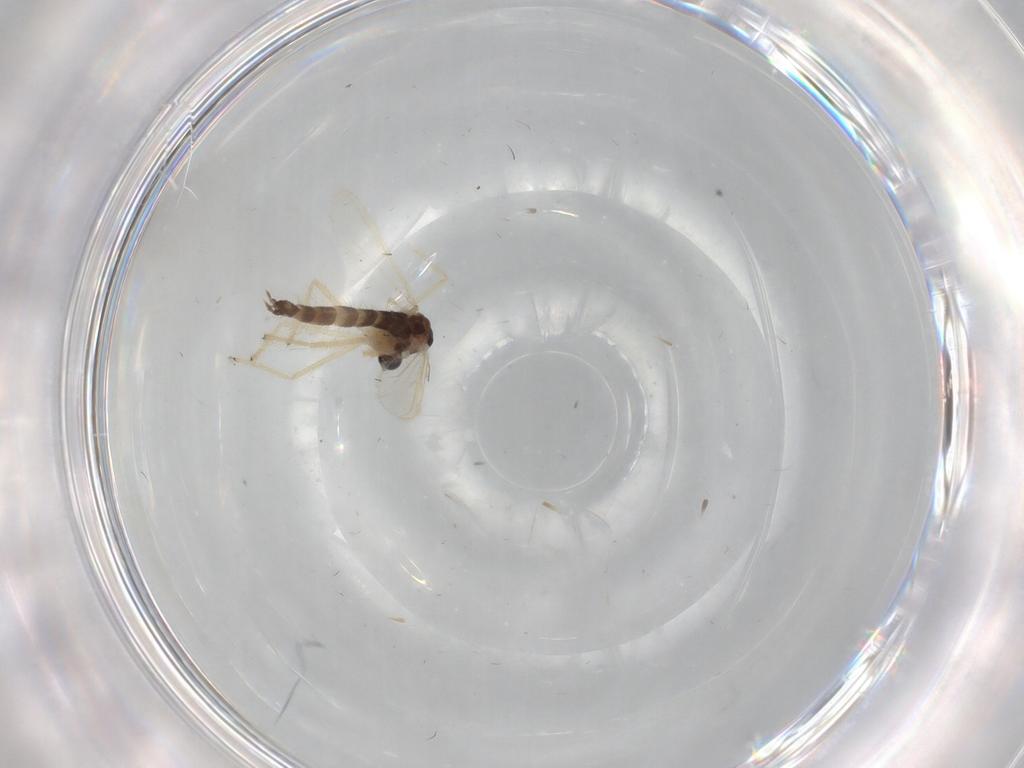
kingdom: Animalia
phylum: Arthropoda
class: Insecta
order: Diptera
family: Chironomidae
